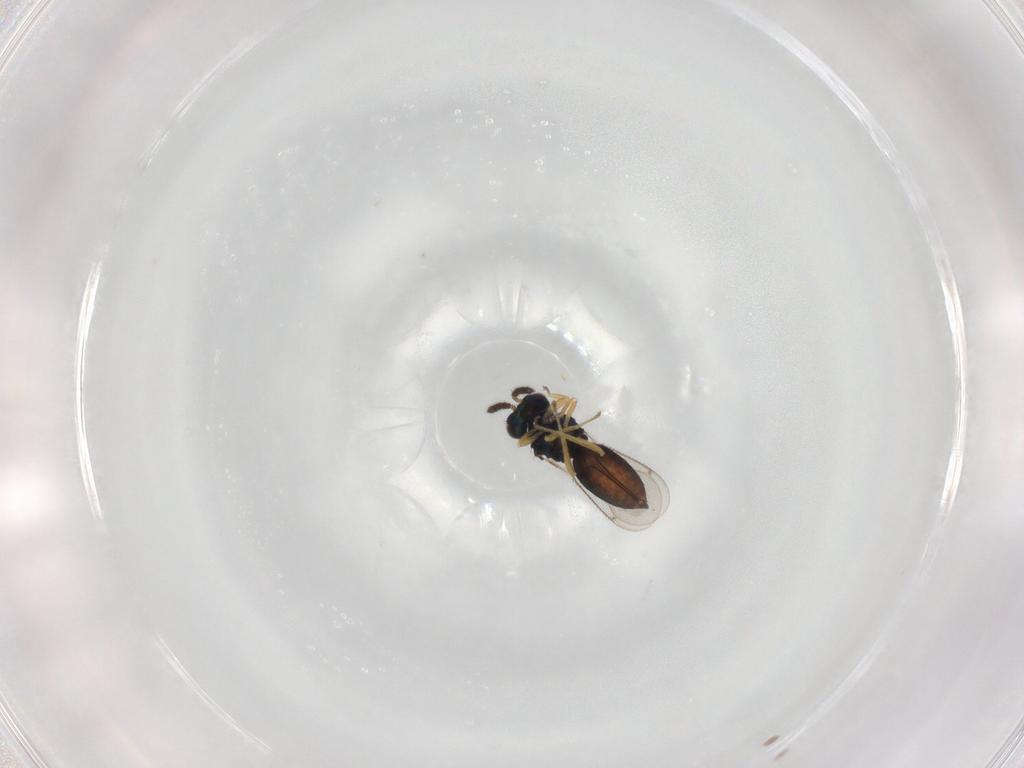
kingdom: Animalia
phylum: Arthropoda
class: Insecta
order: Hymenoptera
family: Eulophidae
